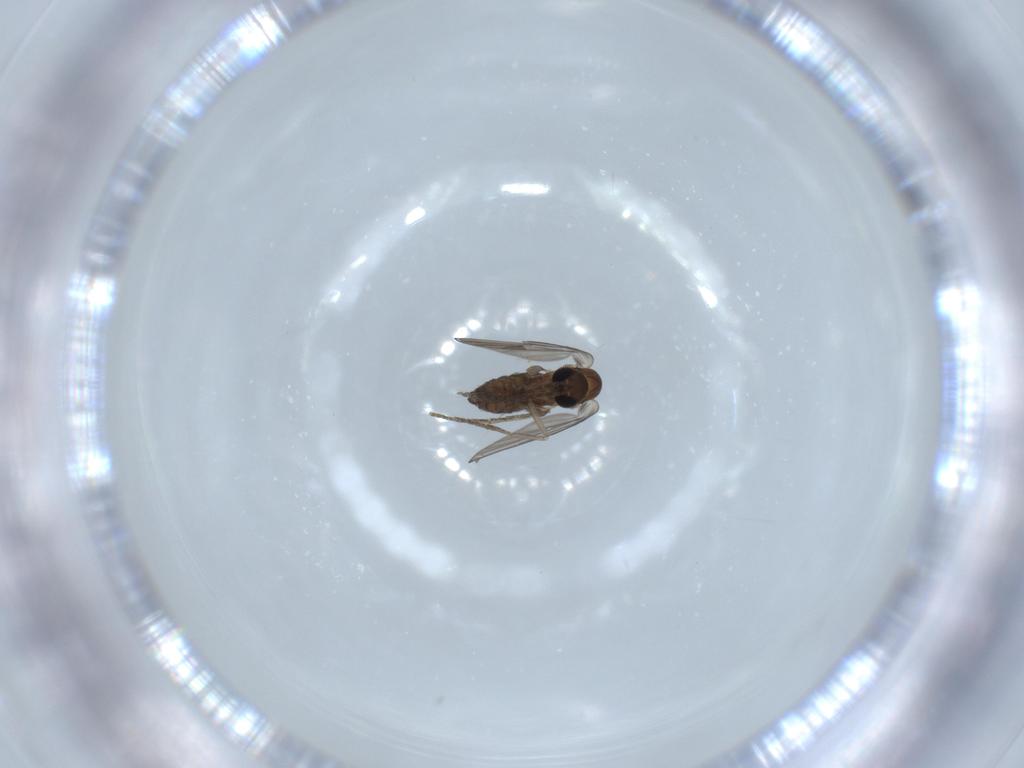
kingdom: Animalia
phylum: Arthropoda
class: Insecta
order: Diptera
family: Psychodidae
